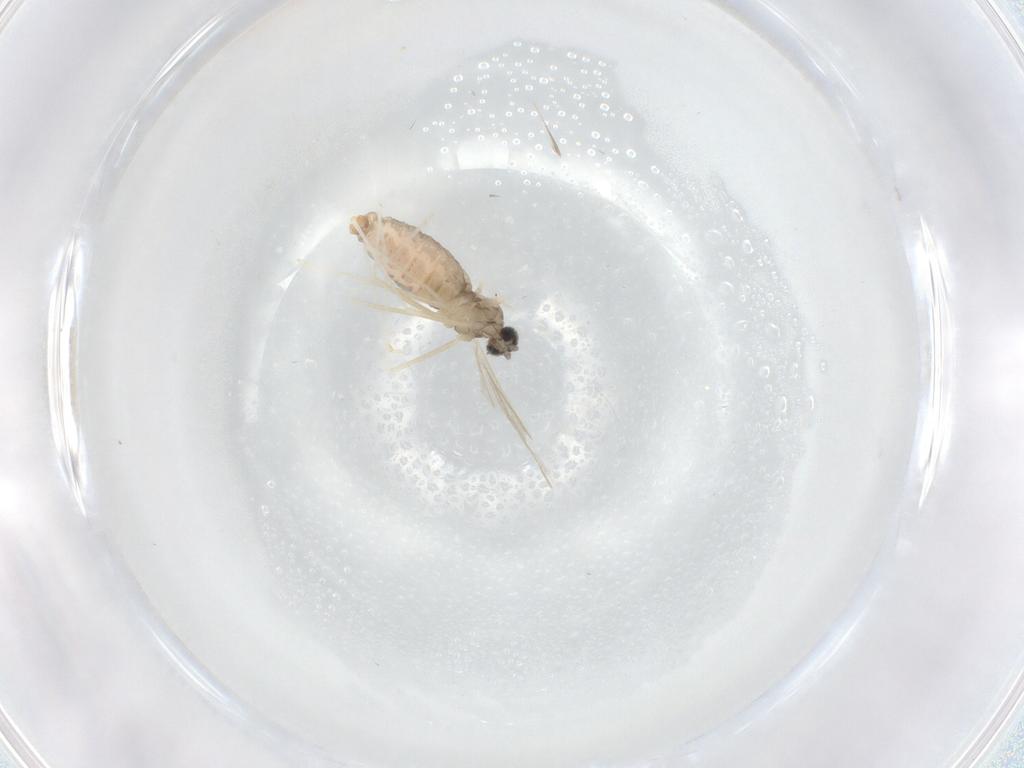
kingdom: Animalia
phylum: Arthropoda
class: Insecta
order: Diptera
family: Cecidomyiidae
